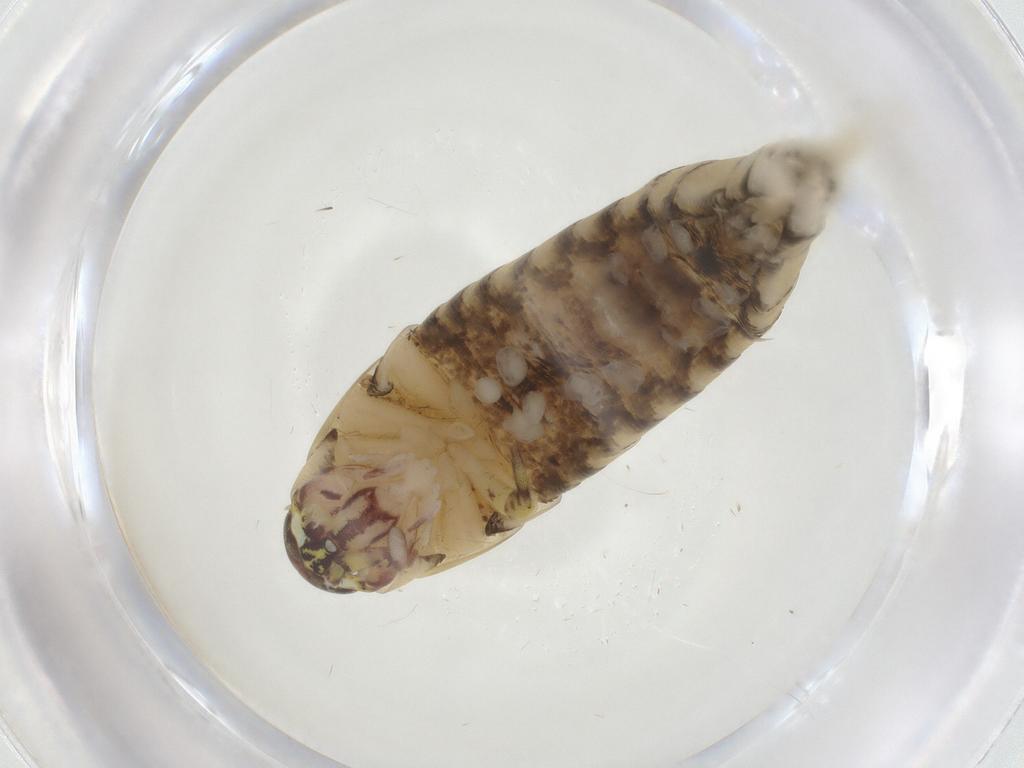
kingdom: Animalia
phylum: Arthropoda
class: Insecta
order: Archaeognatha
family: Machilidae
